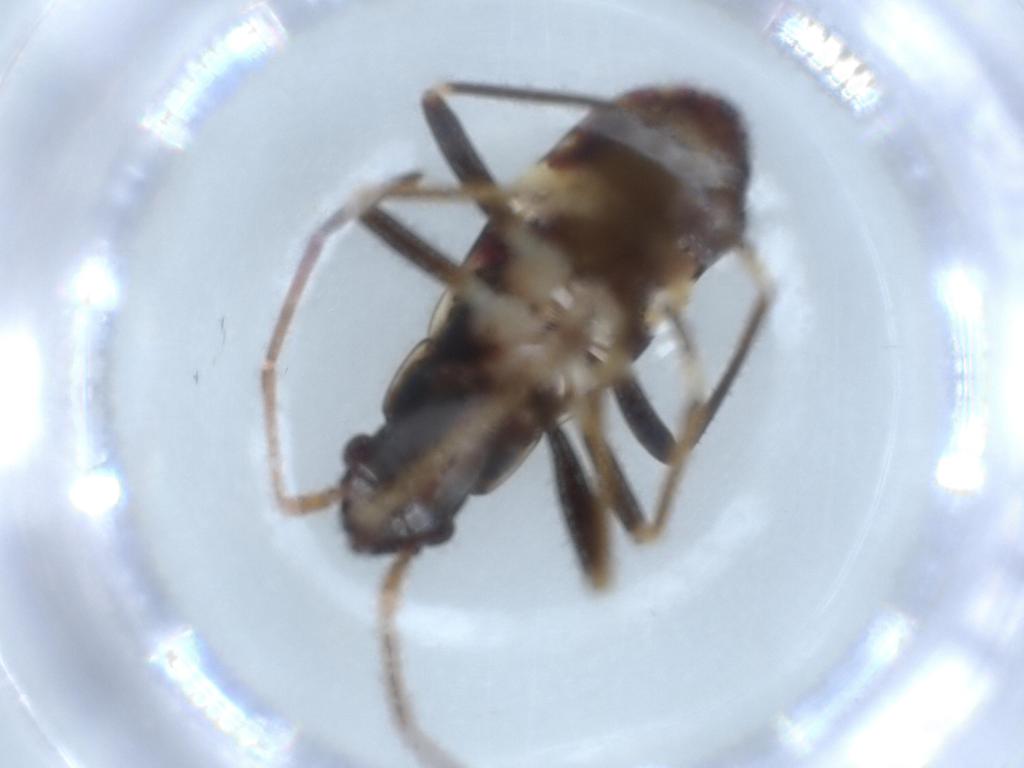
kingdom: Animalia
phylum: Arthropoda
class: Insecta
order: Hemiptera
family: Rhyparochromidae
